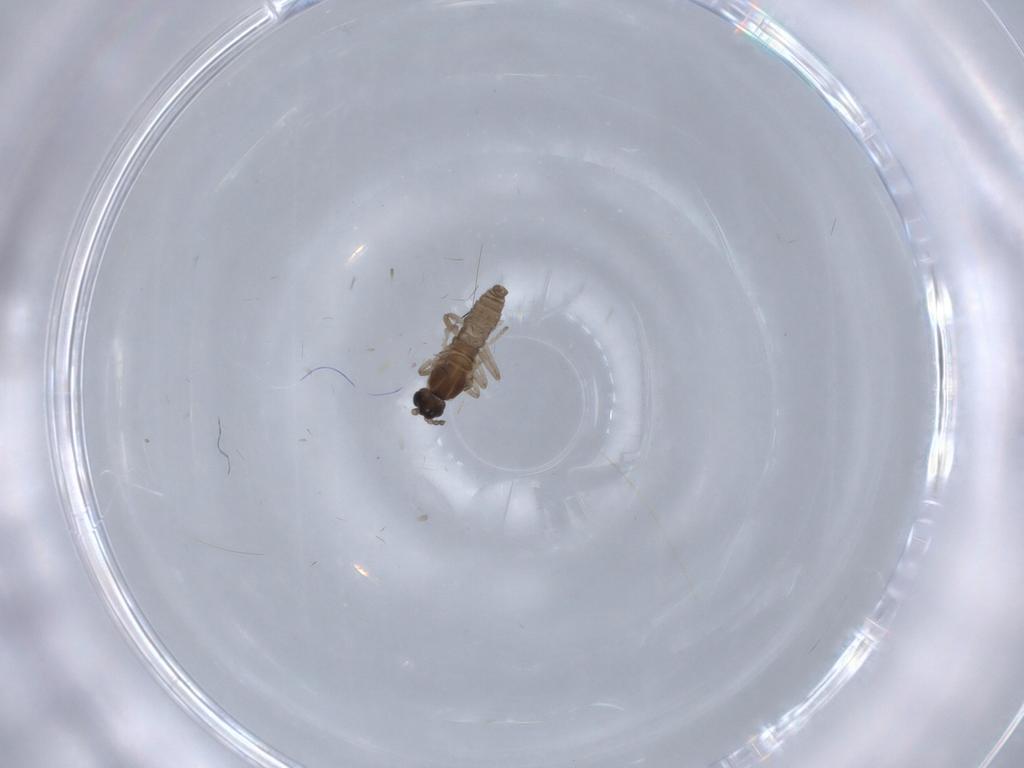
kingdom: Animalia
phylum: Arthropoda
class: Insecta
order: Diptera
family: Cecidomyiidae
